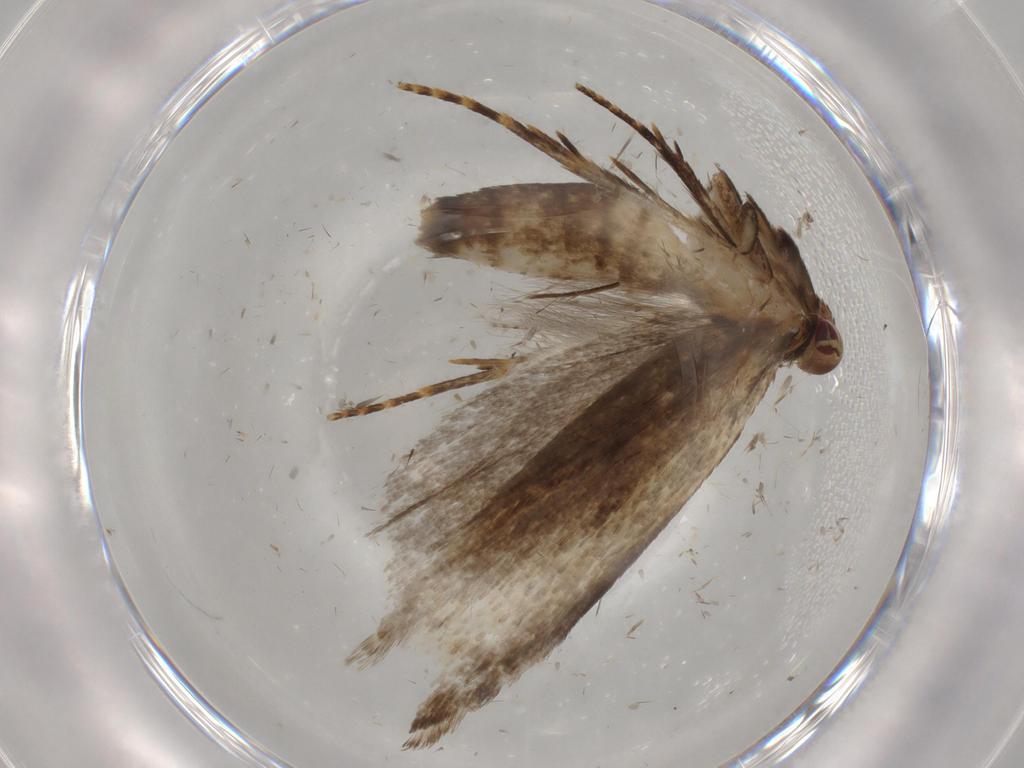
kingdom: Animalia
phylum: Arthropoda
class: Insecta
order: Lepidoptera
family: Gelechiidae
